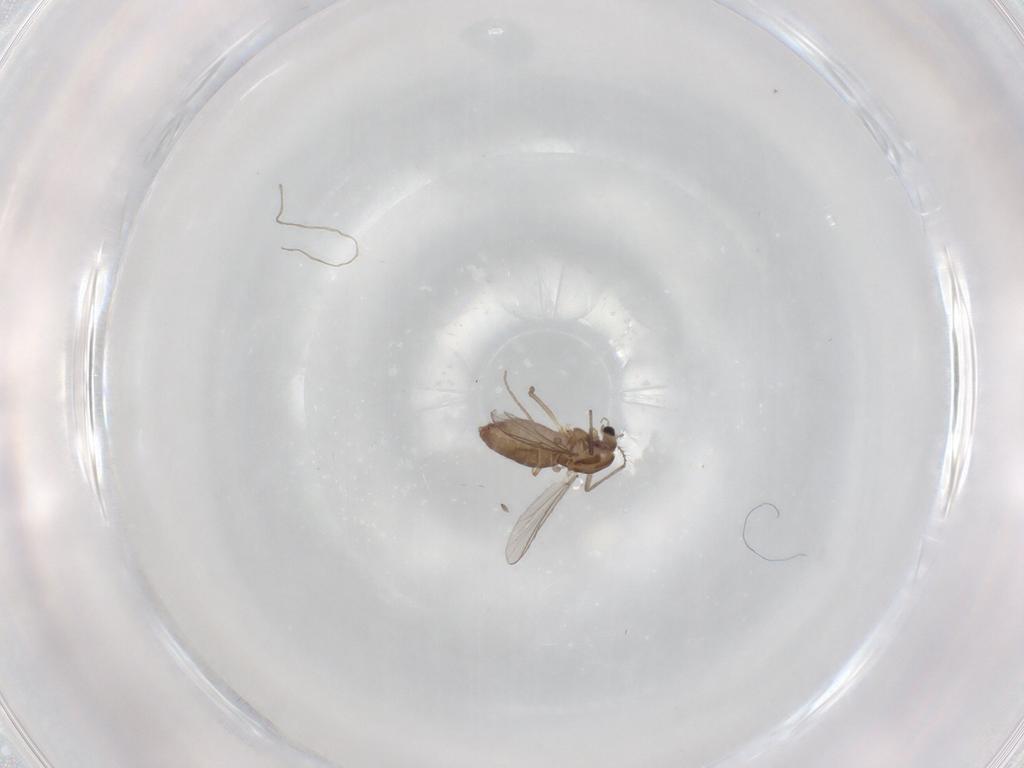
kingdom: Animalia
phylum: Arthropoda
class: Insecta
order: Diptera
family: Chironomidae
